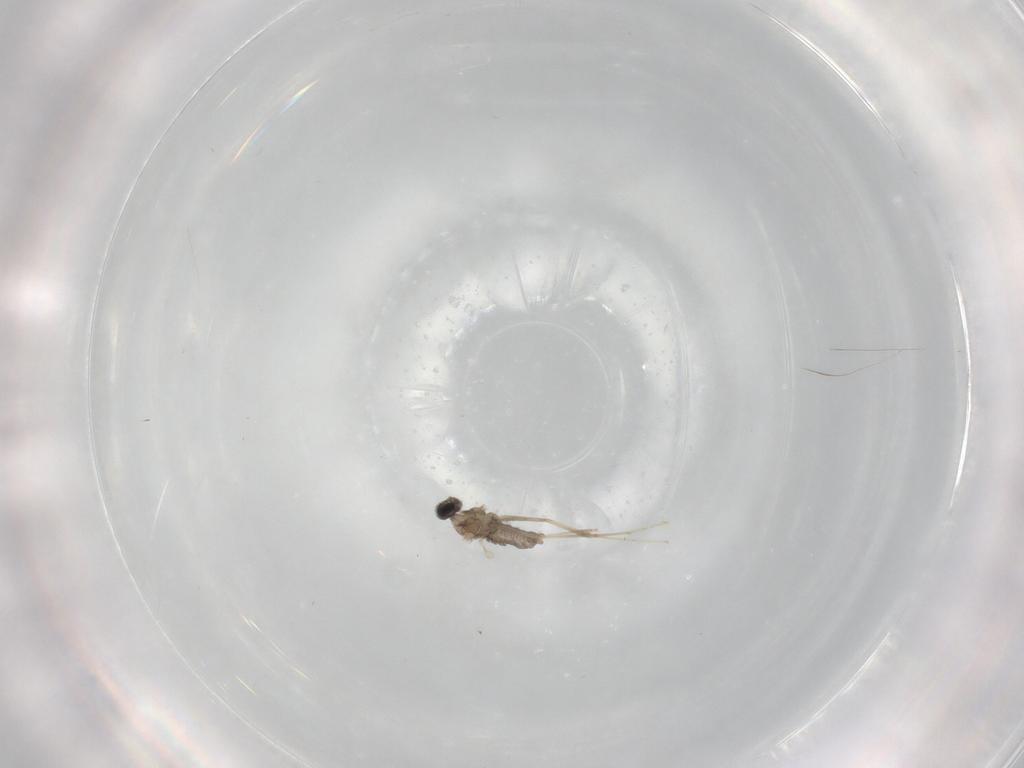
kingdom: Animalia
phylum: Arthropoda
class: Insecta
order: Diptera
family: Cecidomyiidae
